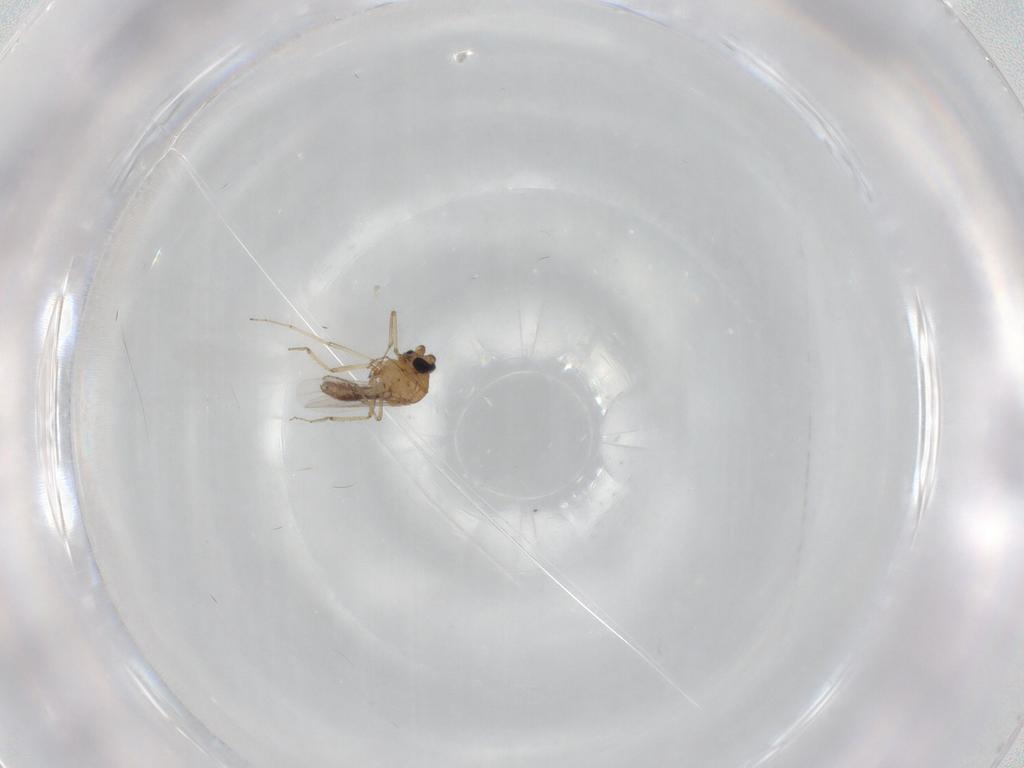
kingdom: Animalia
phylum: Arthropoda
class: Insecta
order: Diptera
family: Ceratopogonidae
